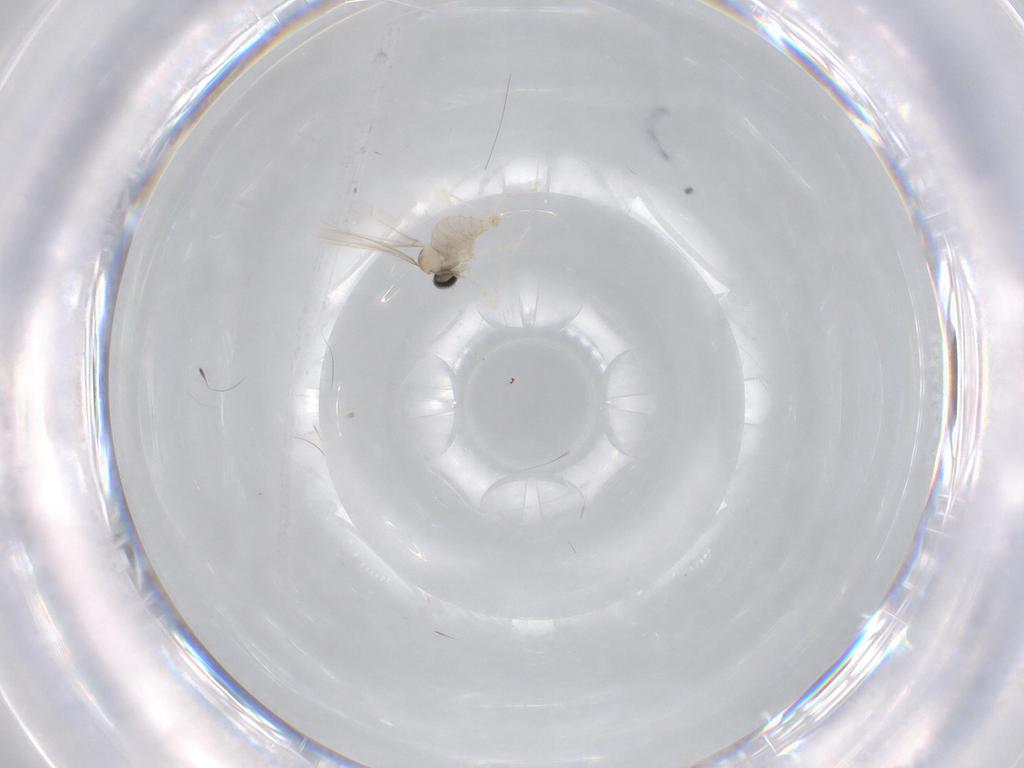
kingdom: Animalia
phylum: Arthropoda
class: Insecta
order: Diptera
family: Cecidomyiidae
